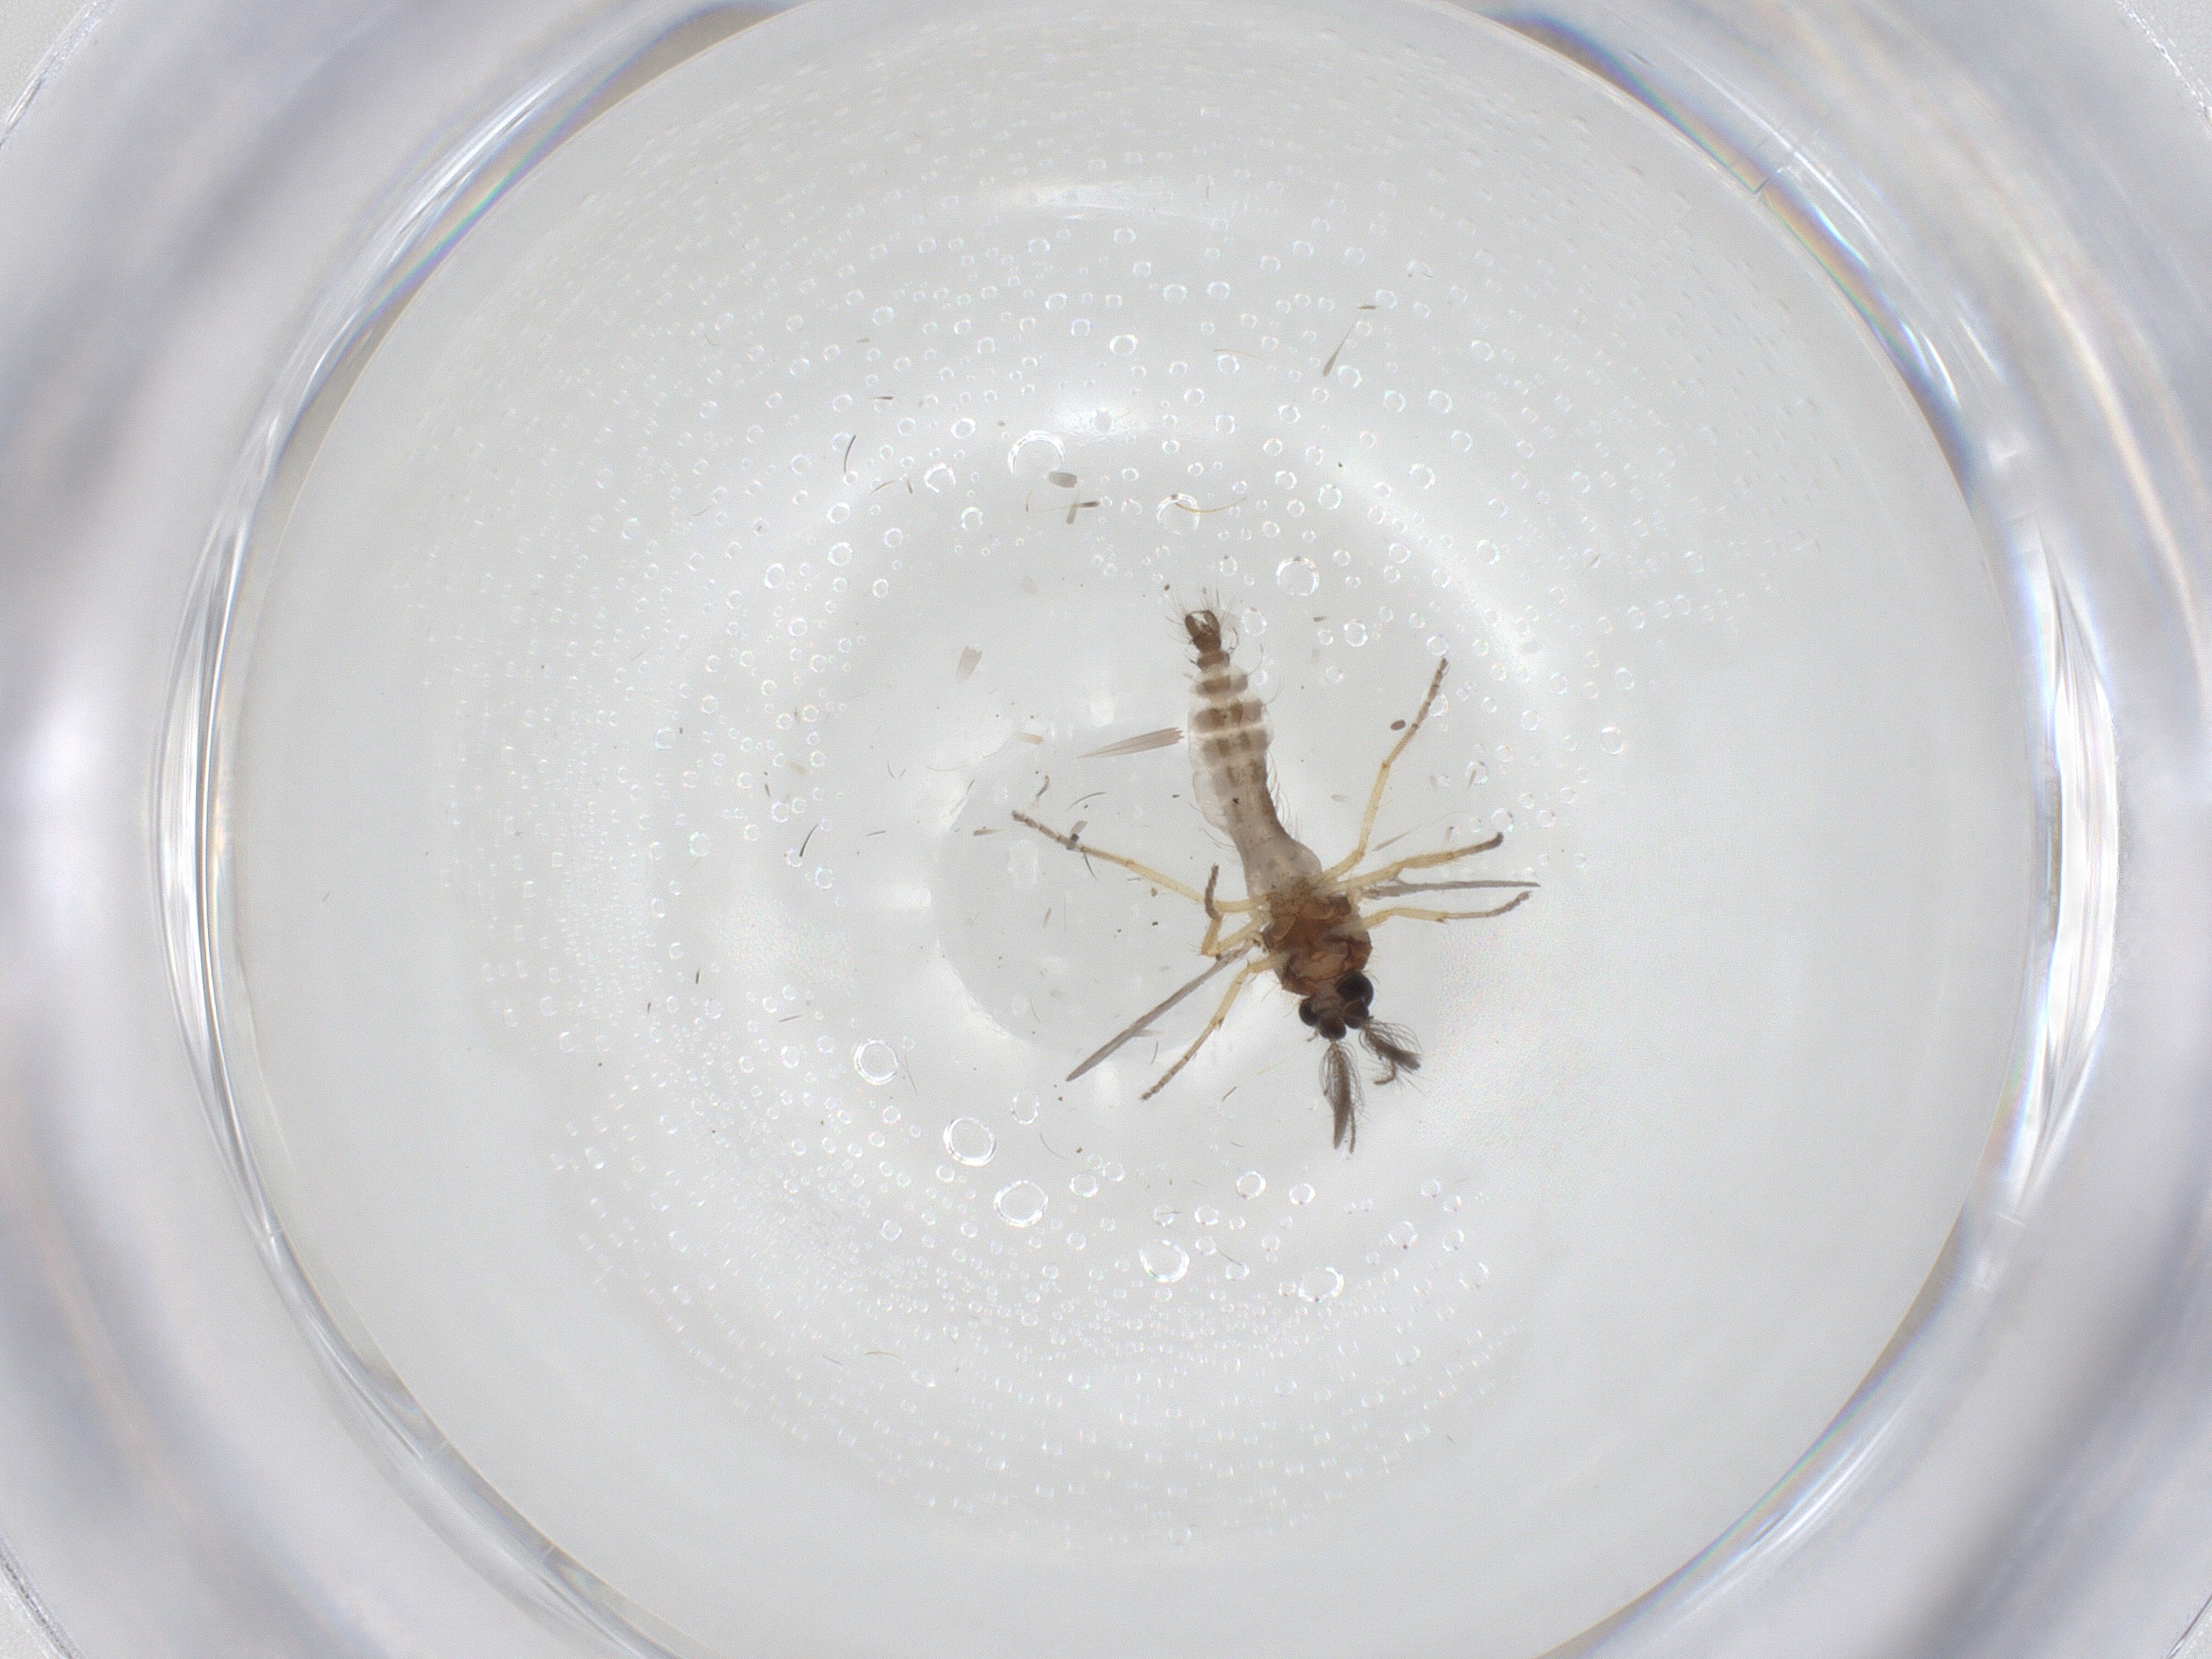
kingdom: Animalia
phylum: Arthropoda
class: Insecta
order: Diptera
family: Ceratopogonidae
